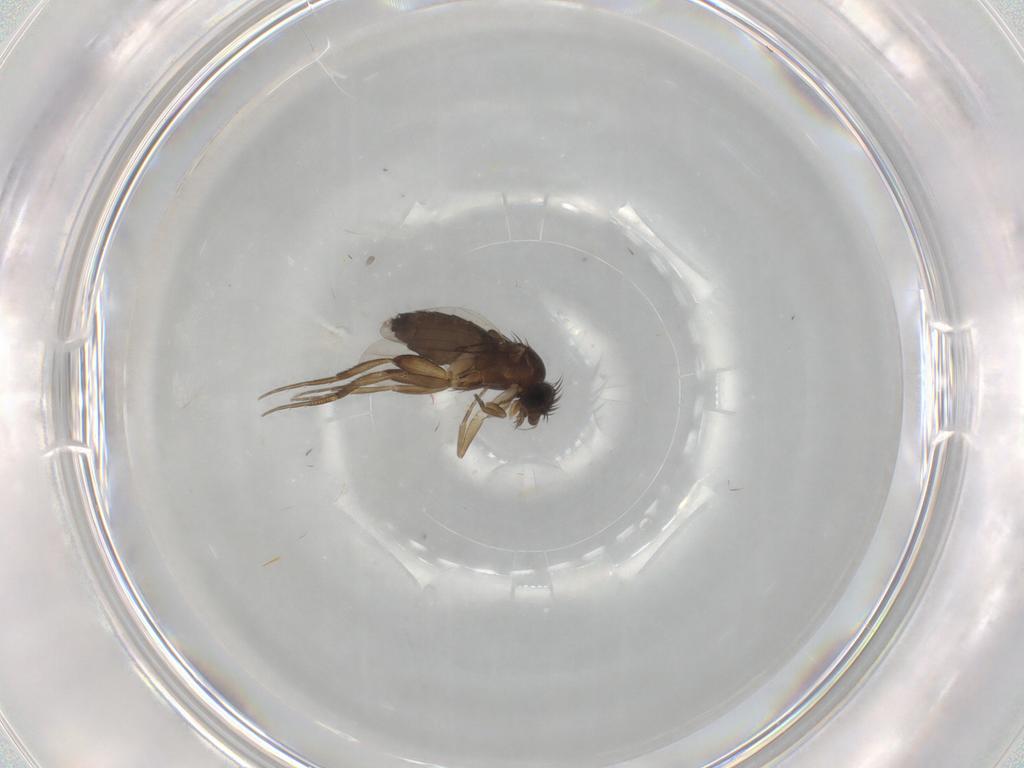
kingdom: Animalia
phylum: Arthropoda
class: Insecta
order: Diptera
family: Phoridae
